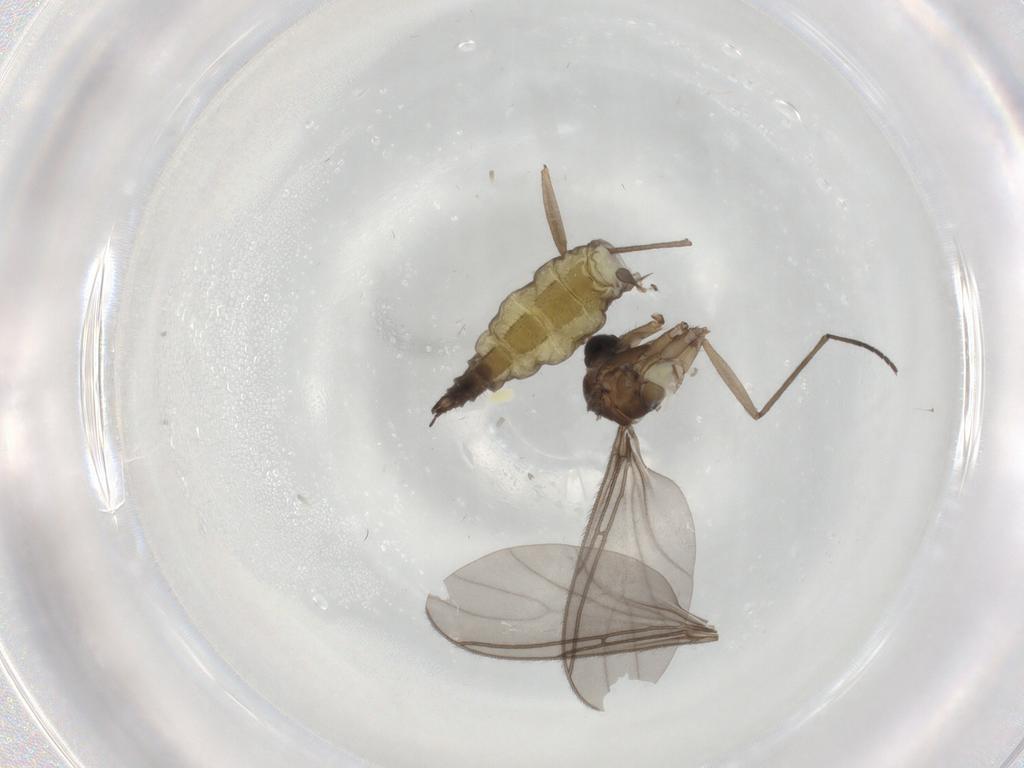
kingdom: Animalia
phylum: Arthropoda
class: Insecta
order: Diptera
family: Sciaridae
